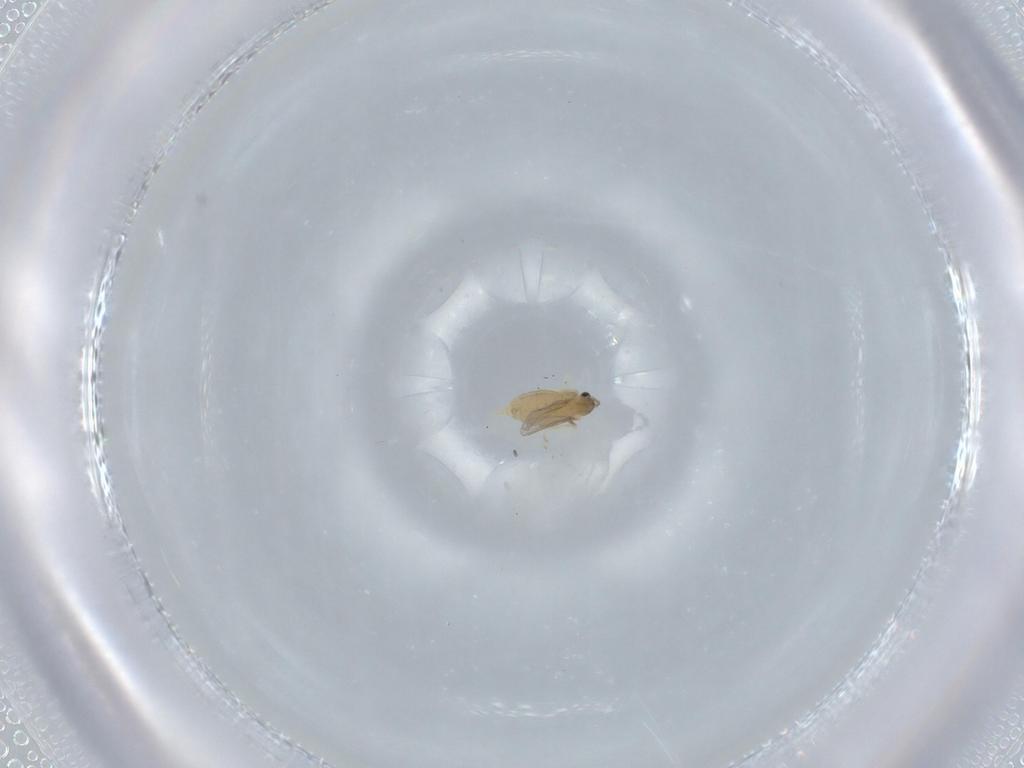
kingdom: Animalia
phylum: Arthropoda
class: Insecta
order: Diptera
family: Cecidomyiidae
